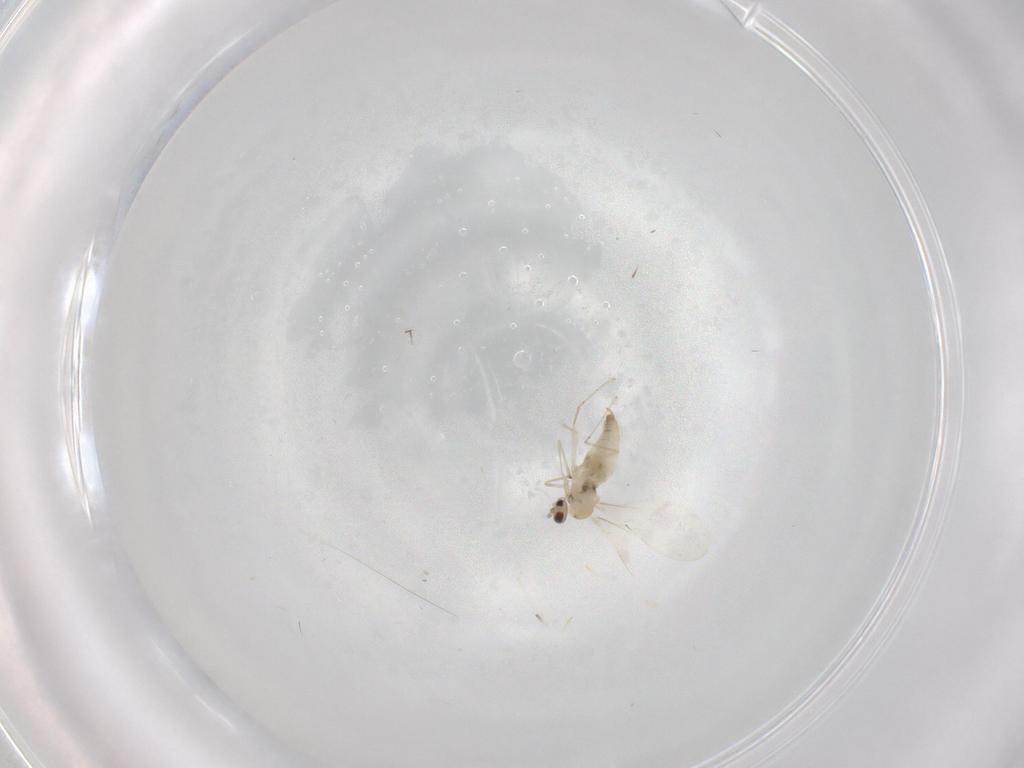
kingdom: Animalia
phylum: Arthropoda
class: Insecta
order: Diptera
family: Cecidomyiidae
